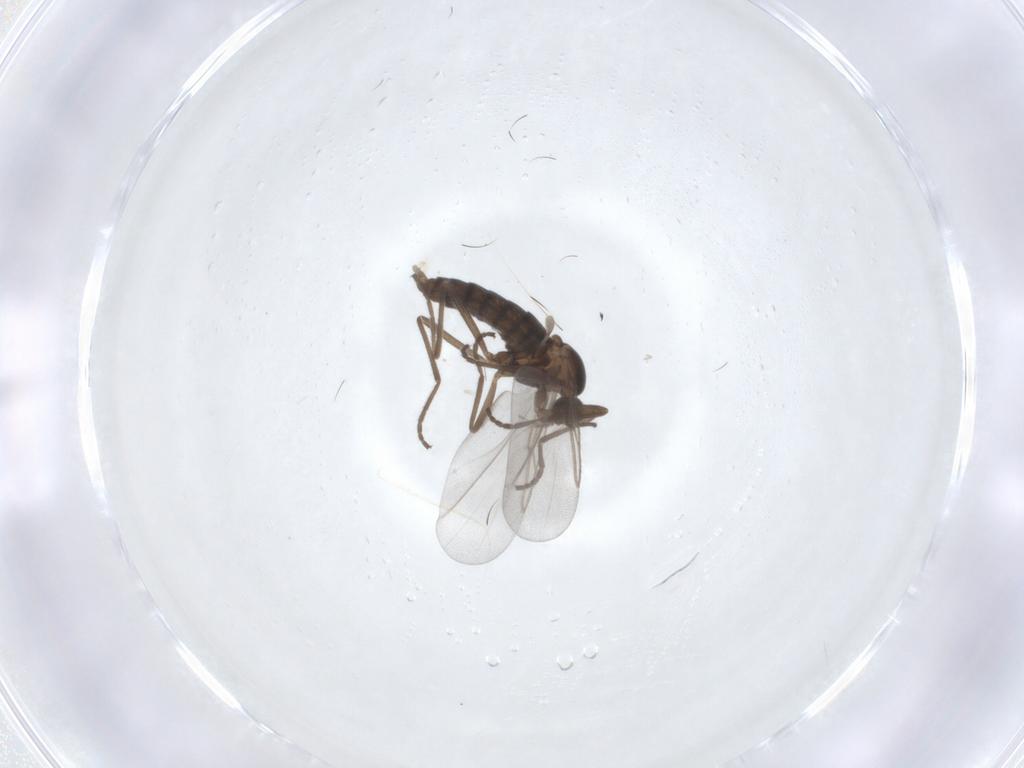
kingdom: Animalia
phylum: Arthropoda
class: Insecta
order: Diptera
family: Cecidomyiidae
